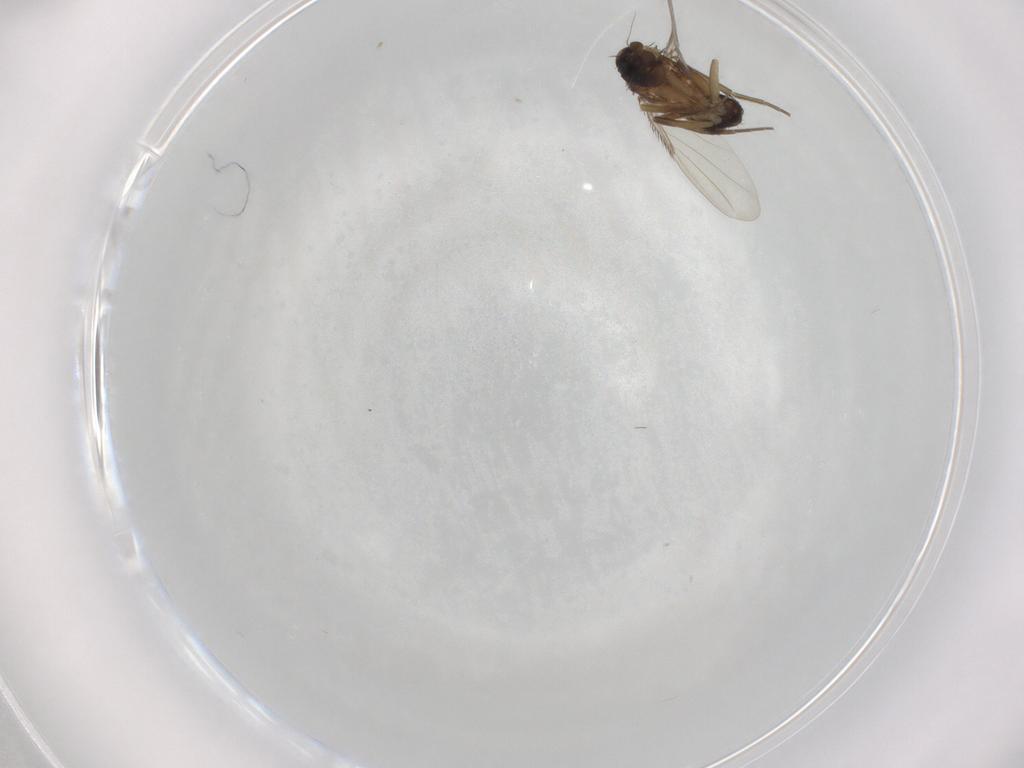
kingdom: Animalia
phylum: Arthropoda
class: Insecta
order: Diptera
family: Phoridae
